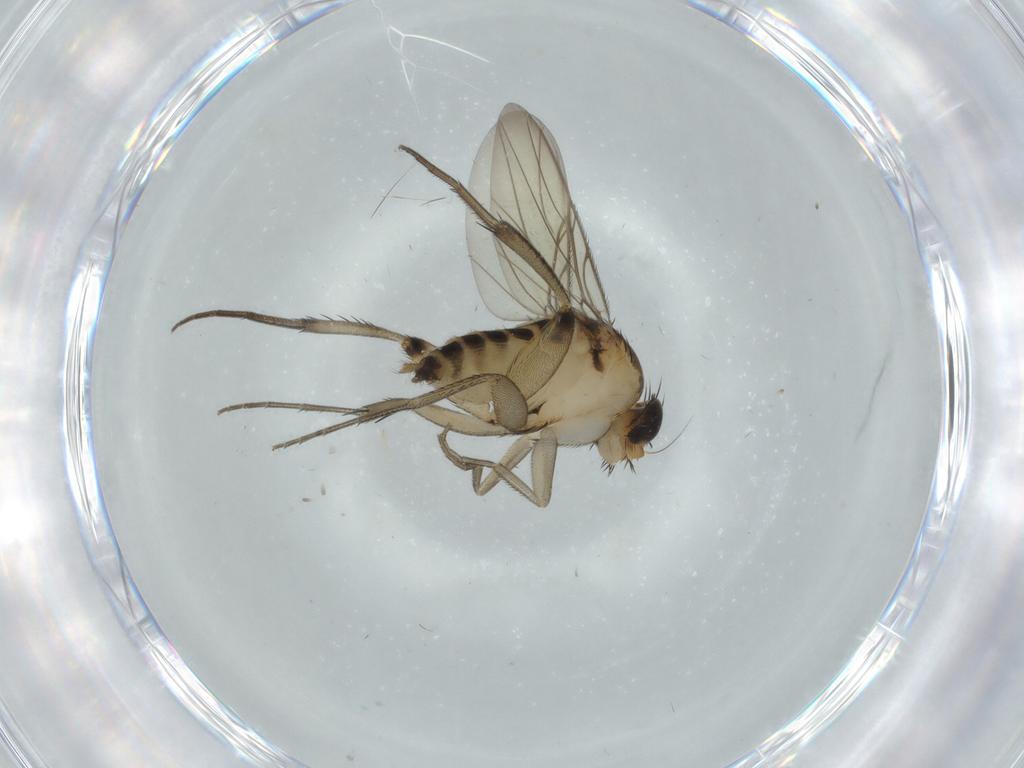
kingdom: Animalia
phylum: Arthropoda
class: Insecta
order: Diptera
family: Phoridae
